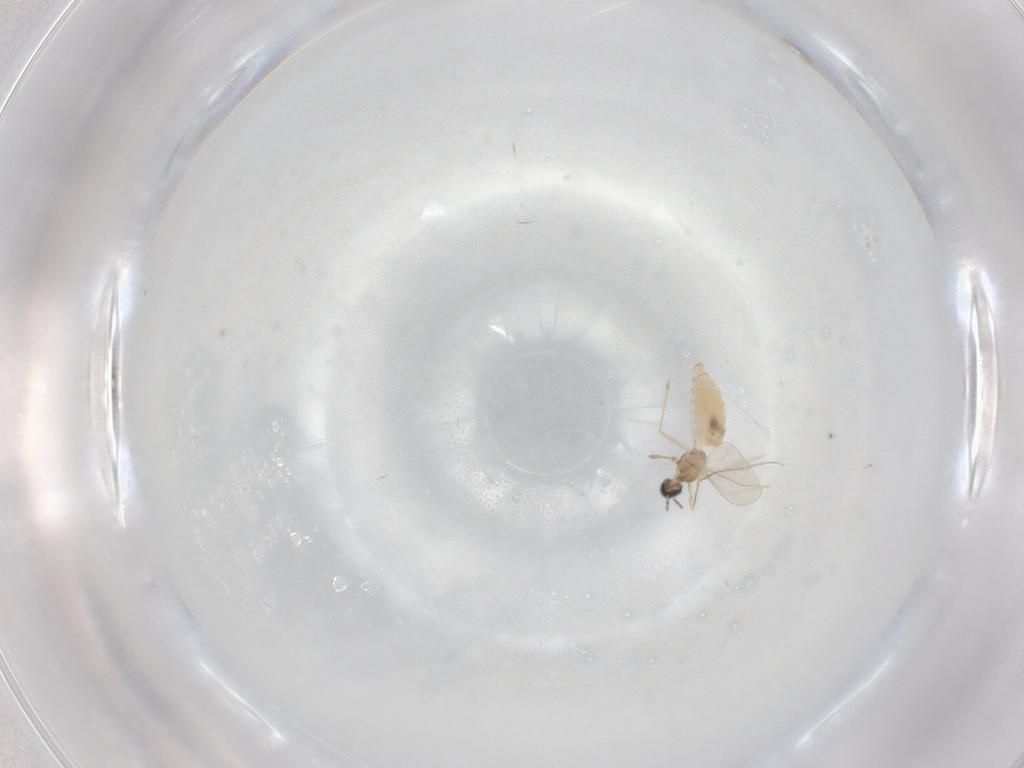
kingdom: Animalia
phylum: Arthropoda
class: Insecta
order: Diptera
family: Cecidomyiidae
